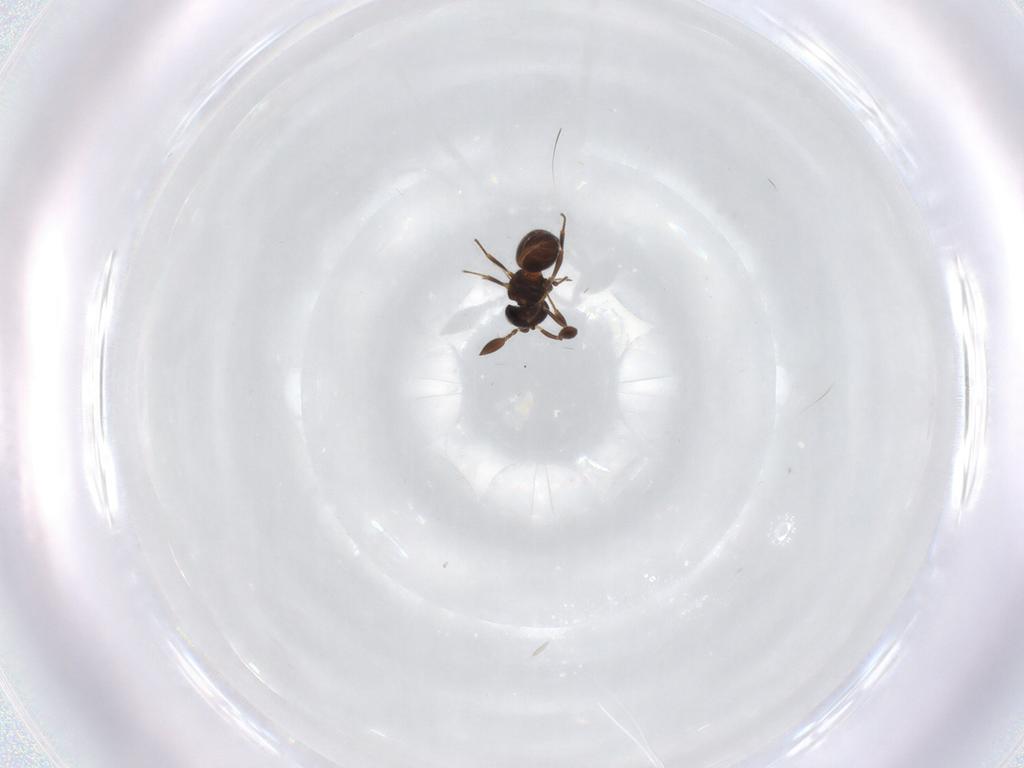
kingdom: Animalia
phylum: Arthropoda
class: Insecta
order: Hymenoptera
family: Scelionidae
